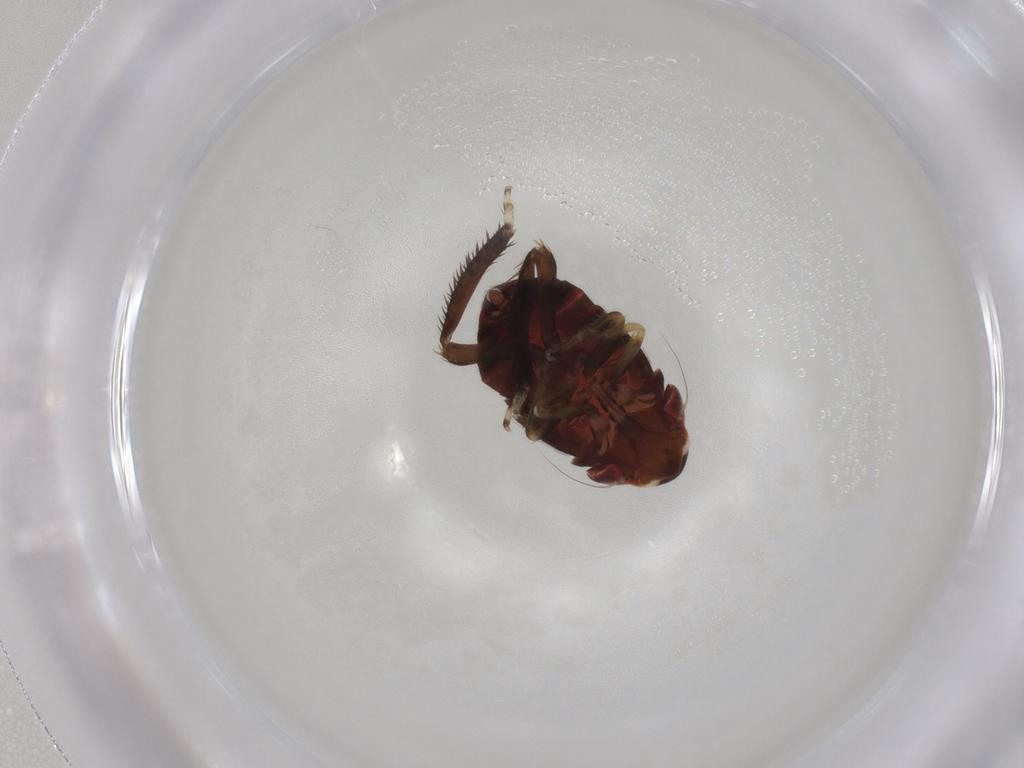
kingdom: Animalia
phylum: Arthropoda
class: Insecta
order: Hemiptera
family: Cicadellidae
